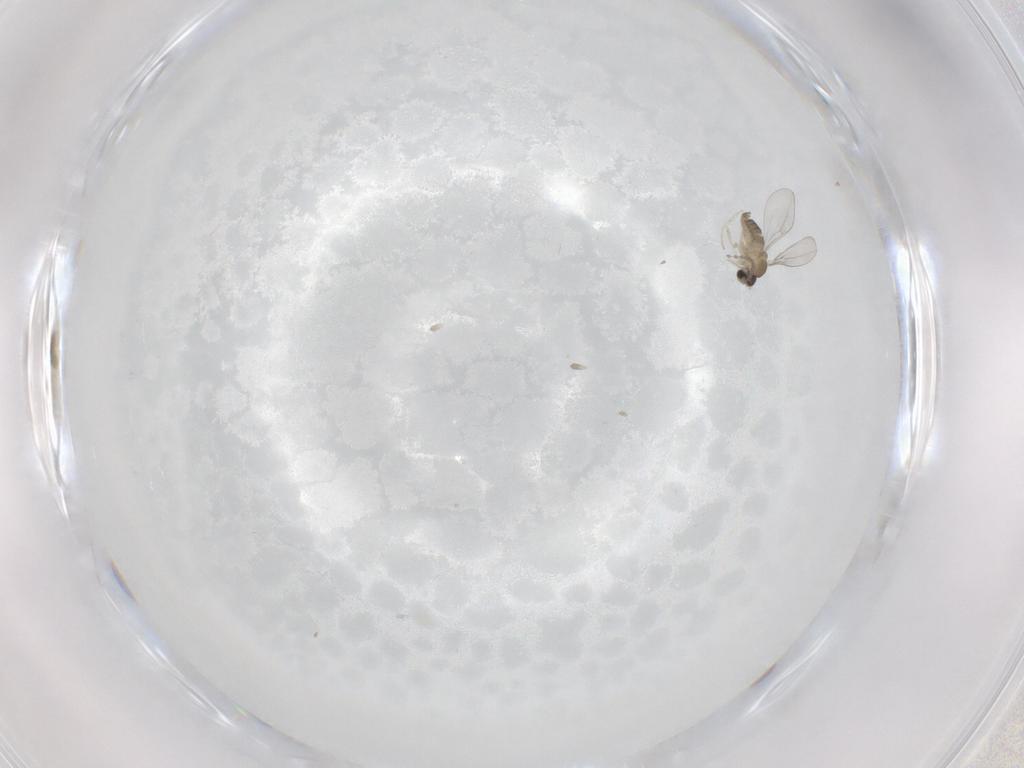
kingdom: Animalia
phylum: Arthropoda
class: Insecta
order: Diptera
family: Cecidomyiidae
